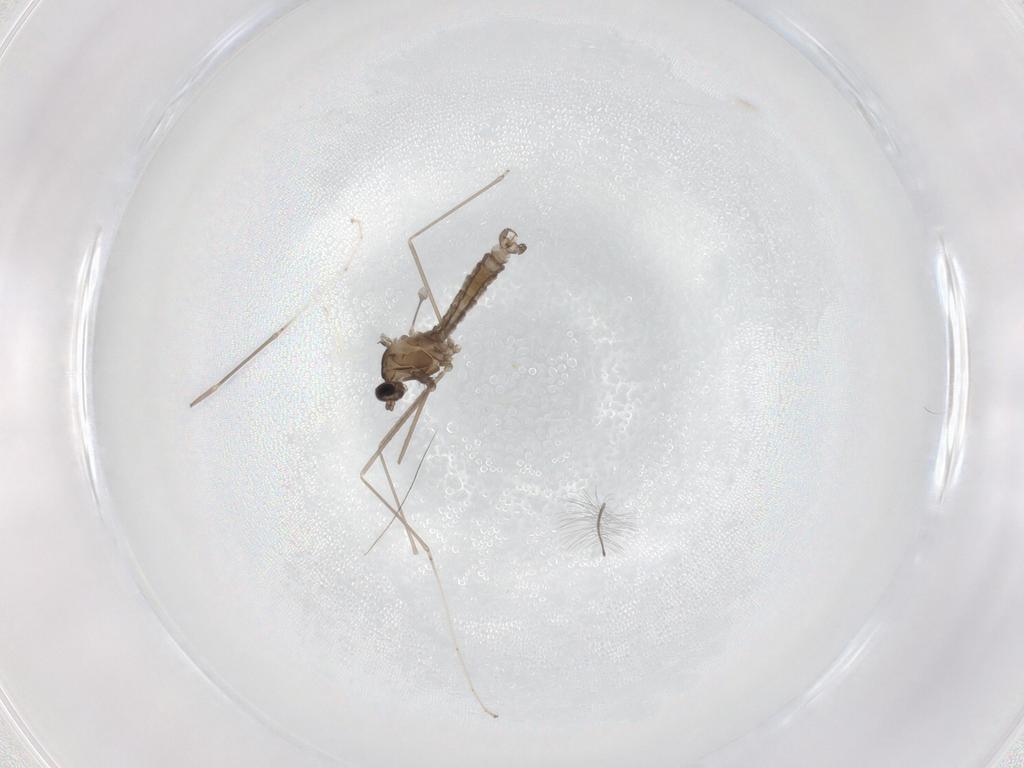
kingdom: Animalia
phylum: Arthropoda
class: Insecta
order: Diptera
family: Cecidomyiidae
